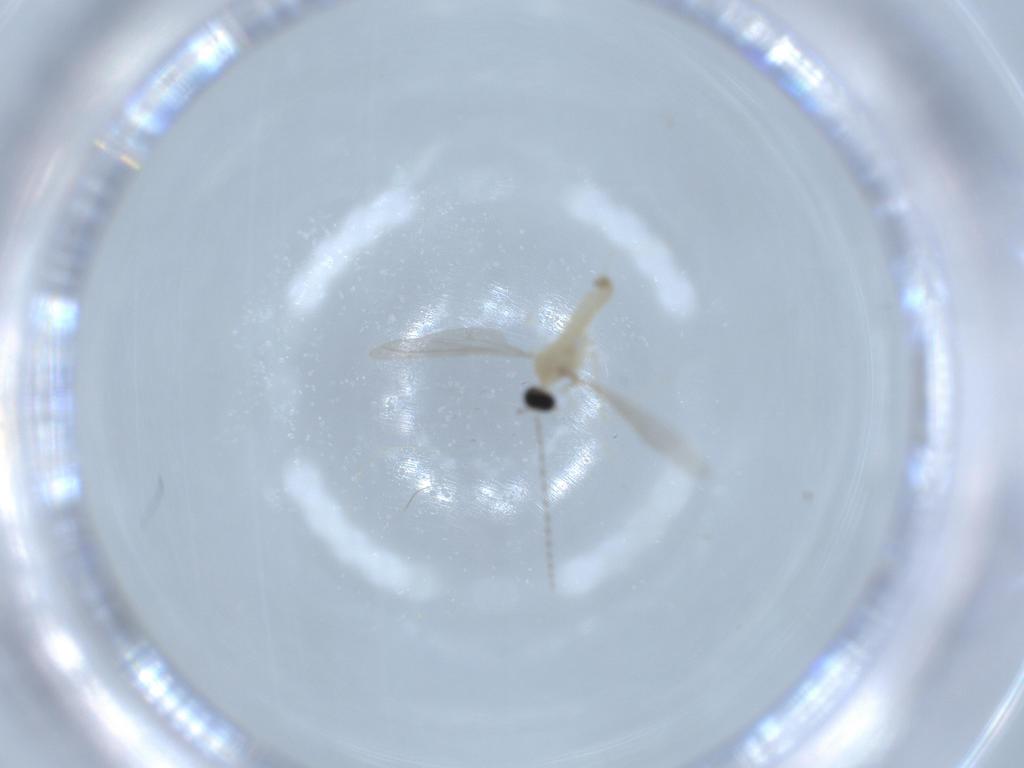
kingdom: Animalia
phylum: Arthropoda
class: Insecta
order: Diptera
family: Cecidomyiidae
